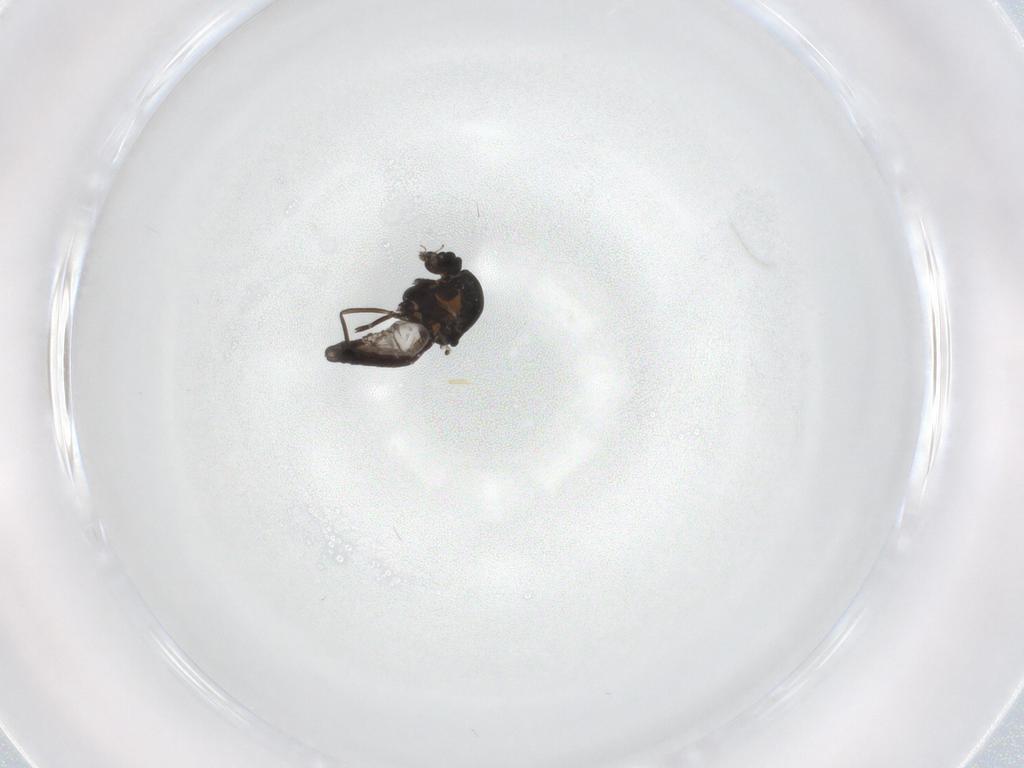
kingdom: Animalia
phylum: Arthropoda
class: Insecta
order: Diptera
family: Ceratopogonidae
